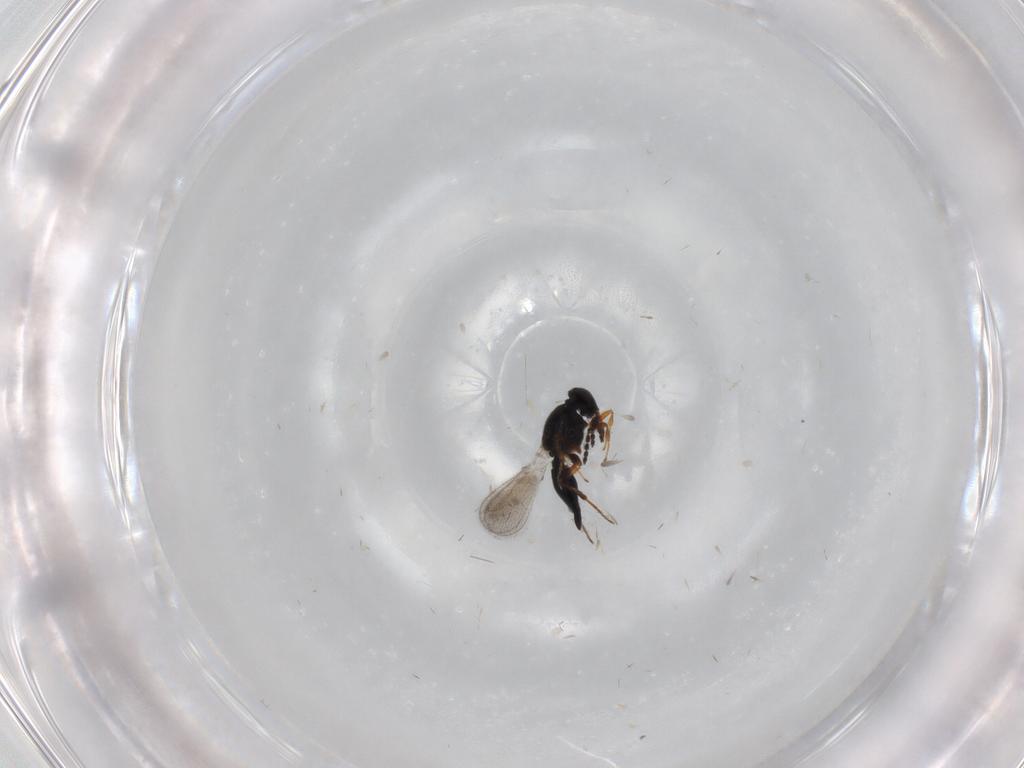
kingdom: Animalia
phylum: Arthropoda
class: Insecta
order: Hymenoptera
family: Platygastridae
